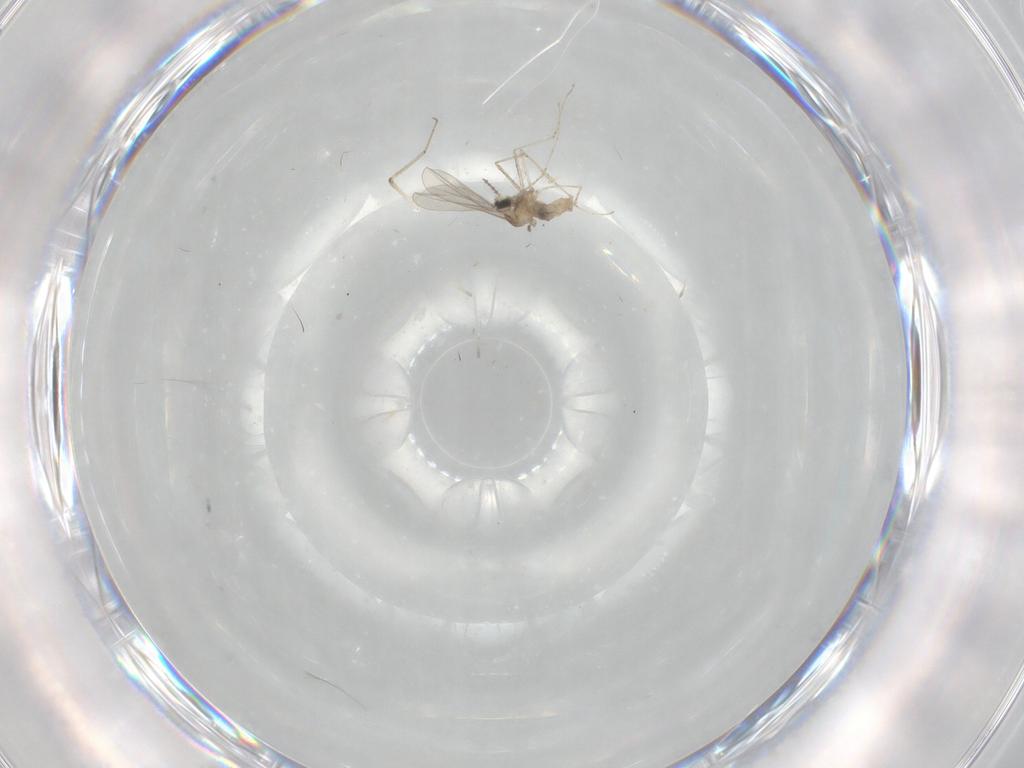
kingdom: Animalia
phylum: Arthropoda
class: Insecta
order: Diptera
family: Cecidomyiidae
